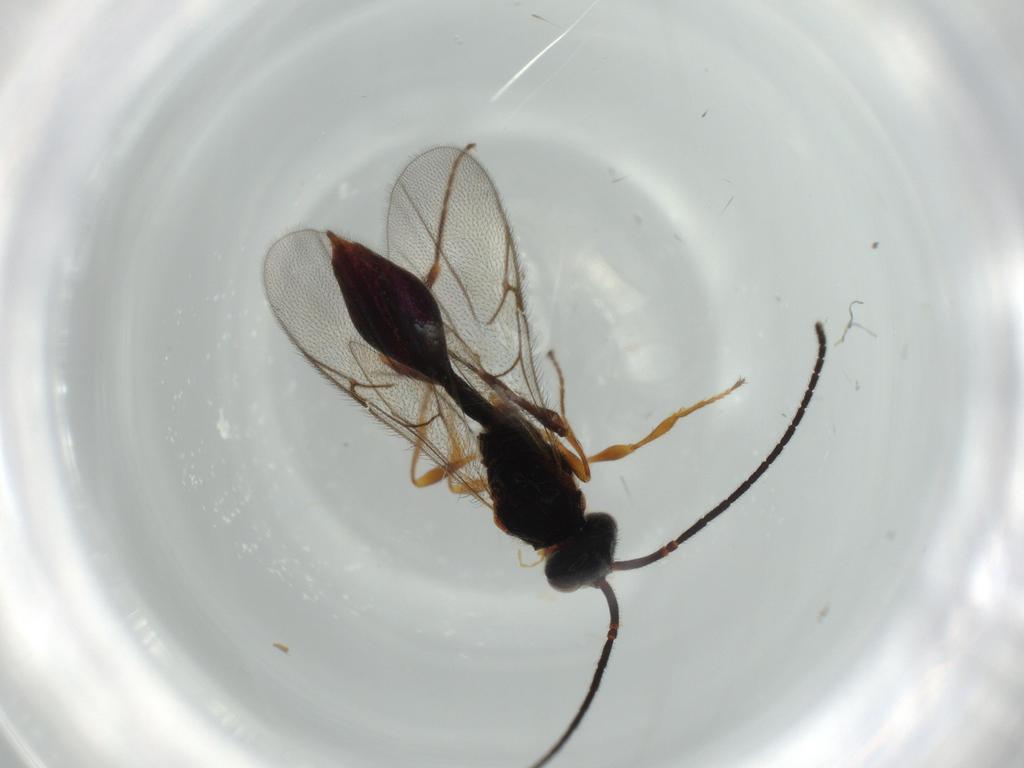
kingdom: Animalia
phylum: Arthropoda
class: Insecta
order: Hymenoptera
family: Diapriidae
